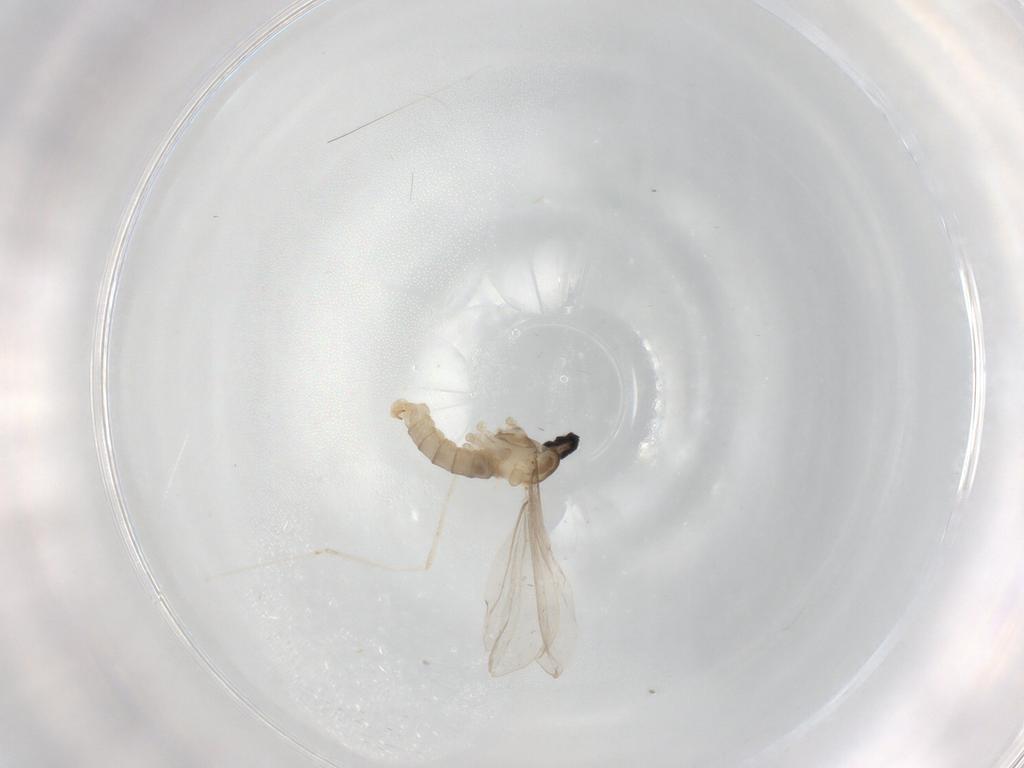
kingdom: Animalia
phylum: Arthropoda
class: Insecta
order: Diptera
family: Cecidomyiidae
